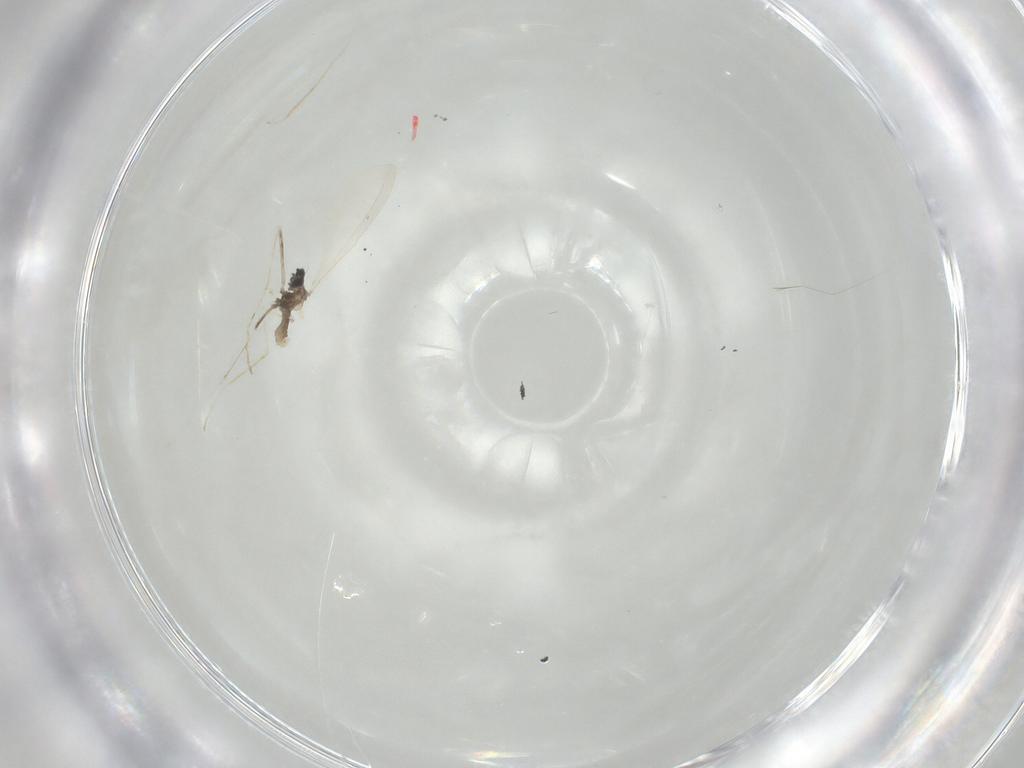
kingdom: Animalia
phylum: Arthropoda
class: Insecta
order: Diptera
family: Cecidomyiidae
